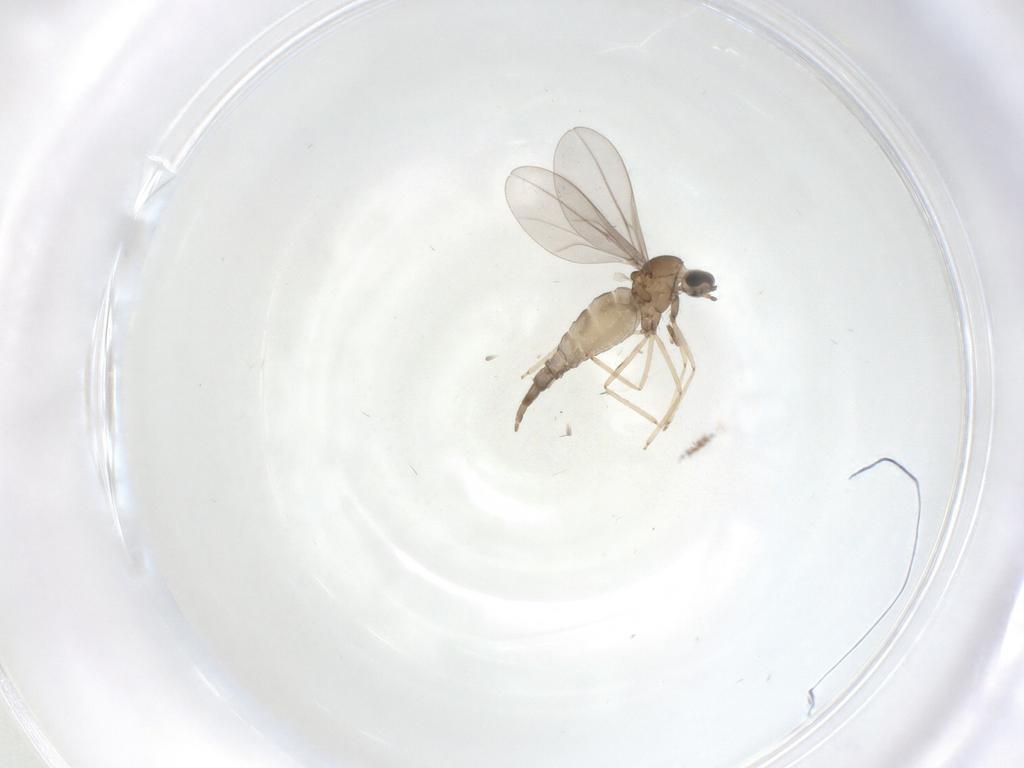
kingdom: Animalia
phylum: Arthropoda
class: Insecta
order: Diptera
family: Cecidomyiidae
